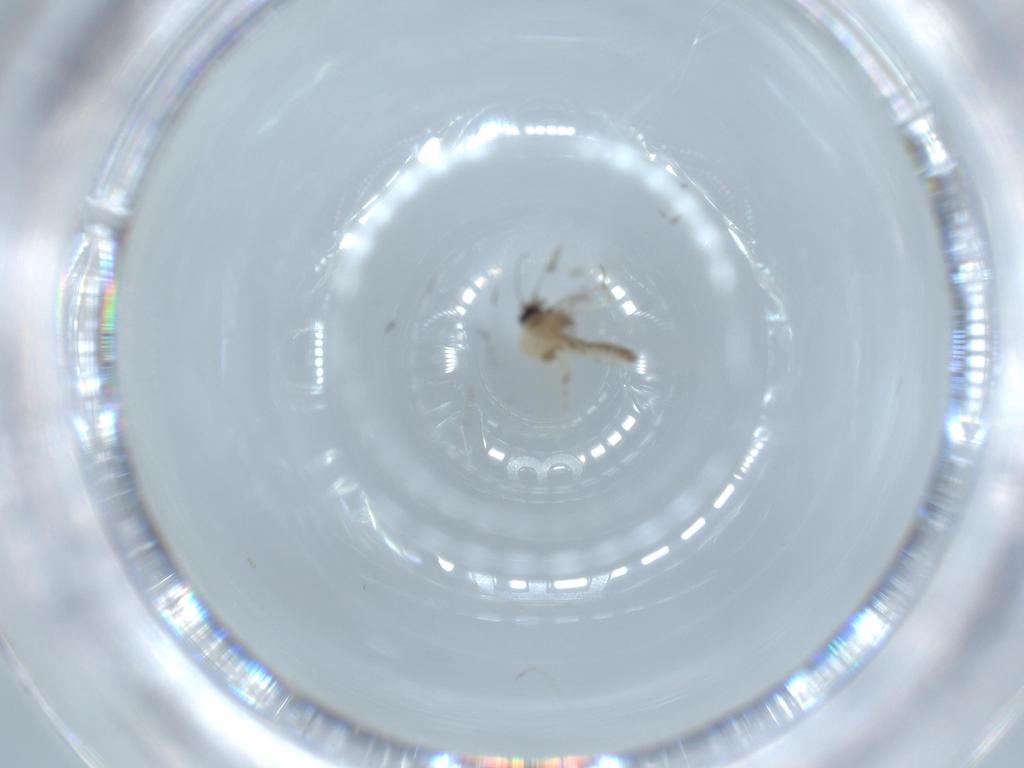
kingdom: Animalia
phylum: Arthropoda
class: Insecta
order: Diptera
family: Ceratopogonidae
